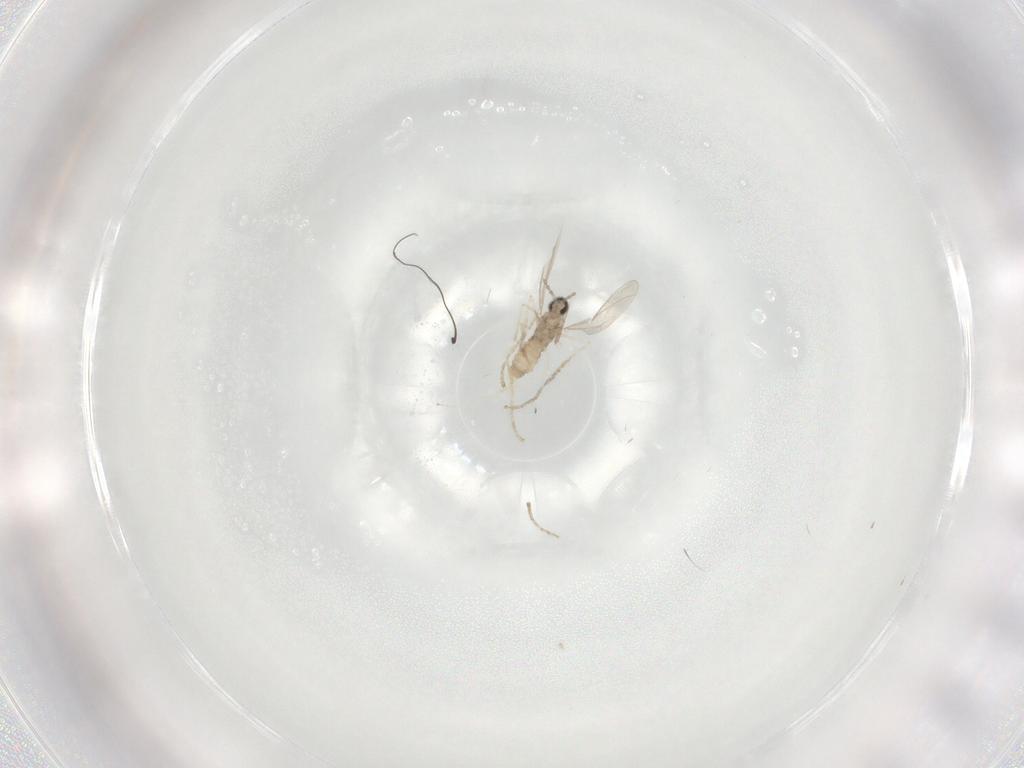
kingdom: Animalia
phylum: Arthropoda
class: Insecta
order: Diptera
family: Cecidomyiidae
